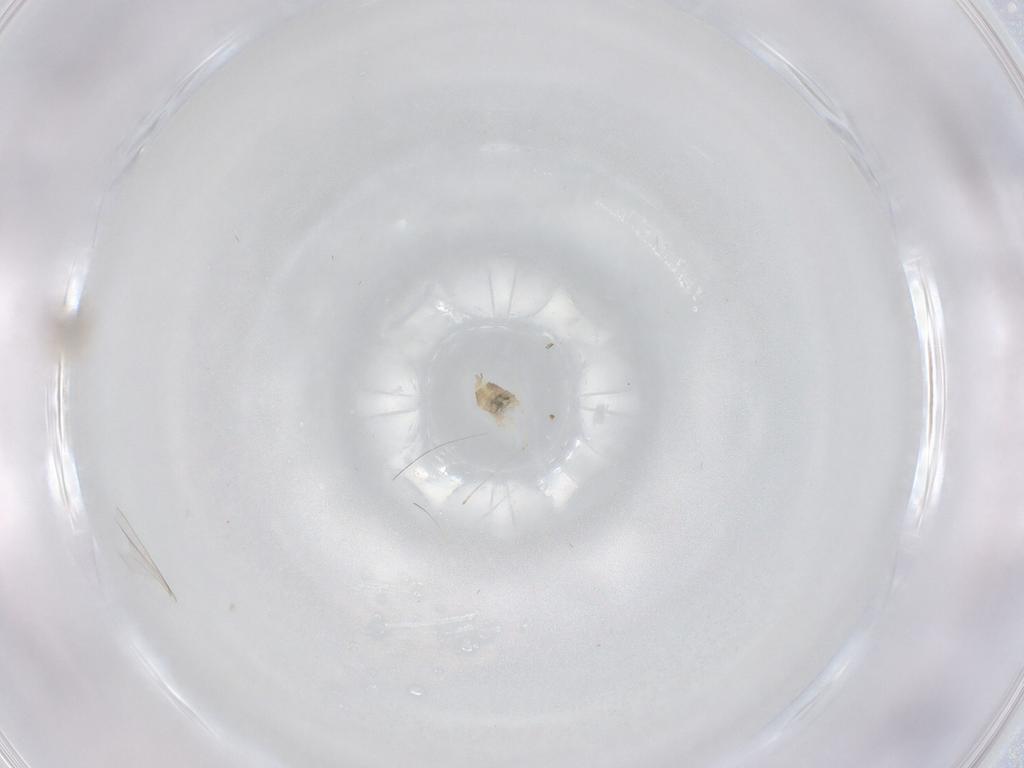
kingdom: Animalia
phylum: Arthropoda
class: Insecta
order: Diptera
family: Cecidomyiidae
